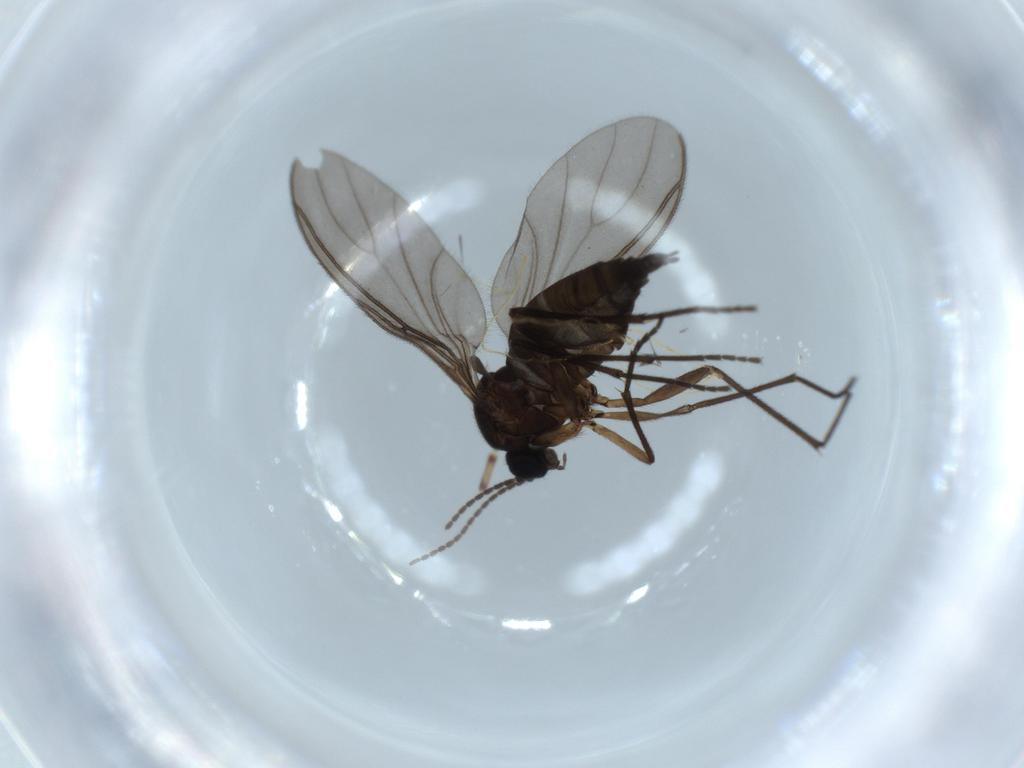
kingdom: Animalia
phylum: Arthropoda
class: Insecta
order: Diptera
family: Sciaridae
